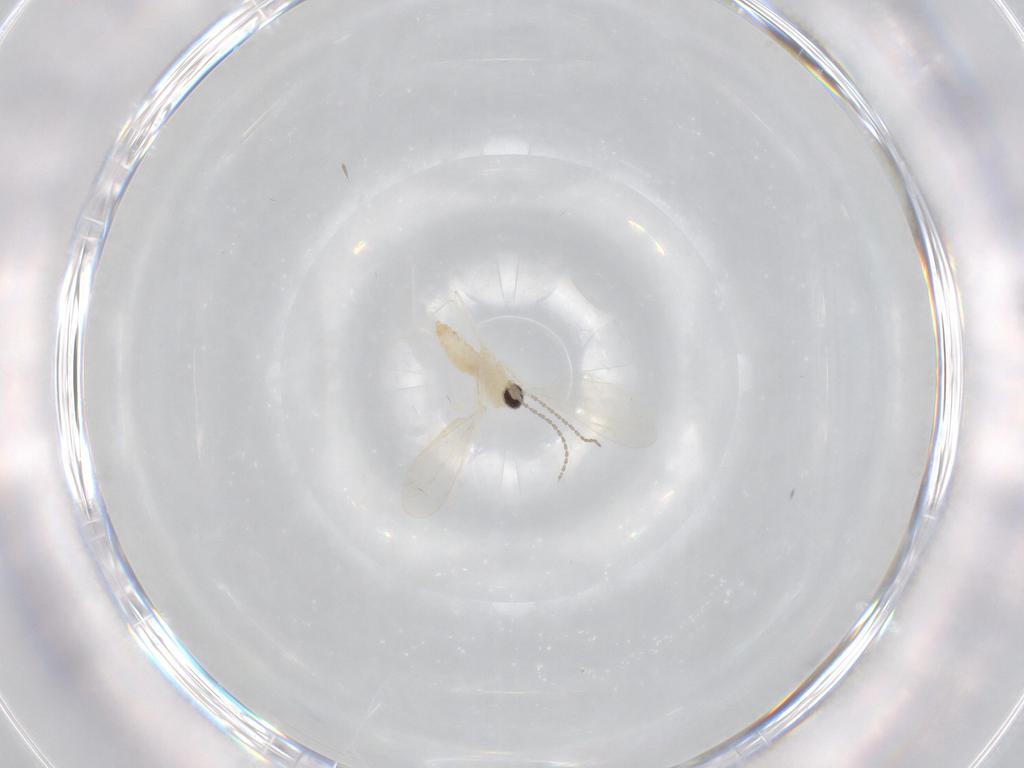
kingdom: Animalia
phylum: Arthropoda
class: Insecta
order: Diptera
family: Cecidomyiidae
